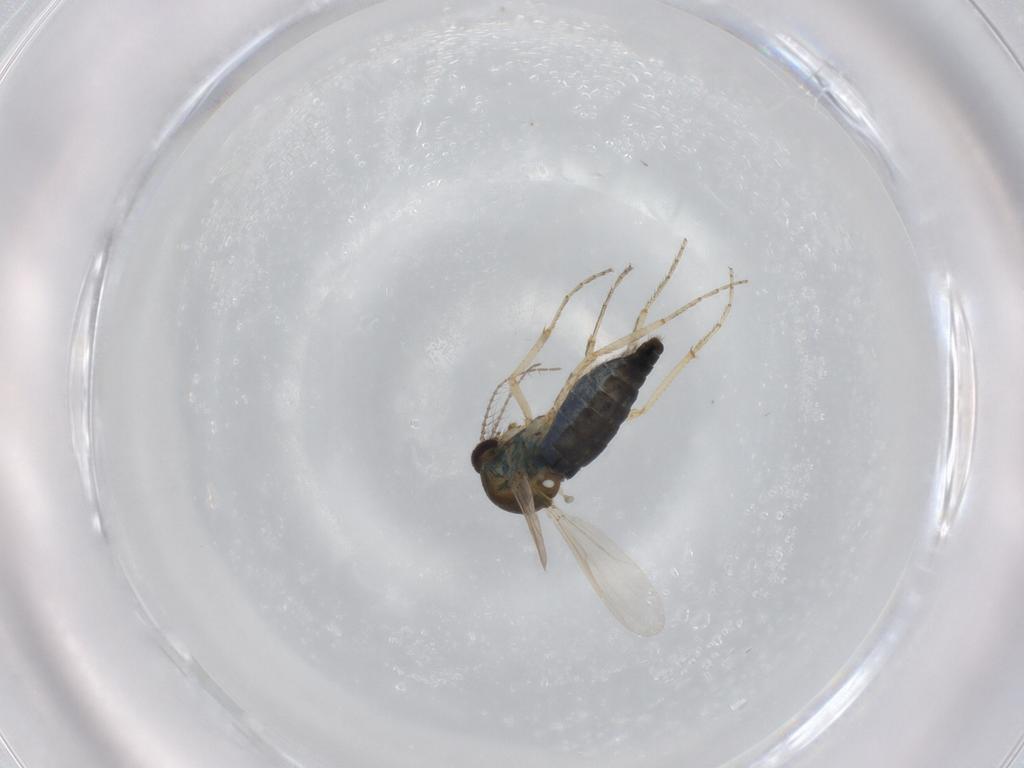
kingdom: Animalia
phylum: Arthropoda
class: Insecta
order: Diptera
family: Ceratopogonidae
